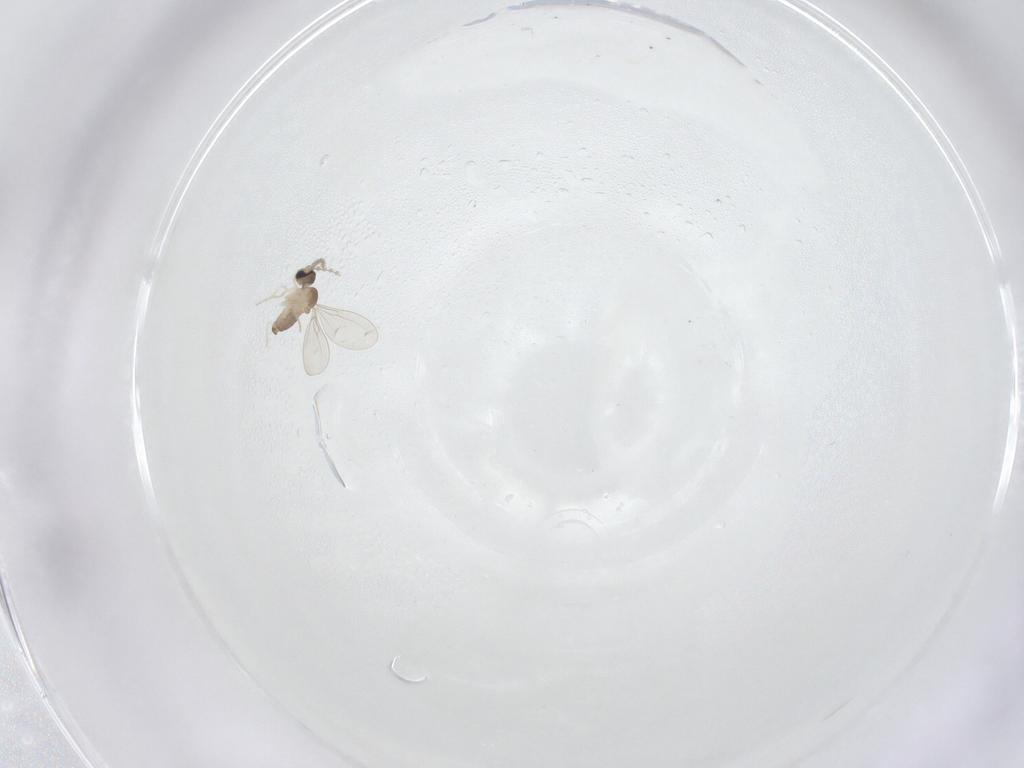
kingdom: Animalia
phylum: Arthropoda
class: Insecta
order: Diptera
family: Cecidomyiidae
